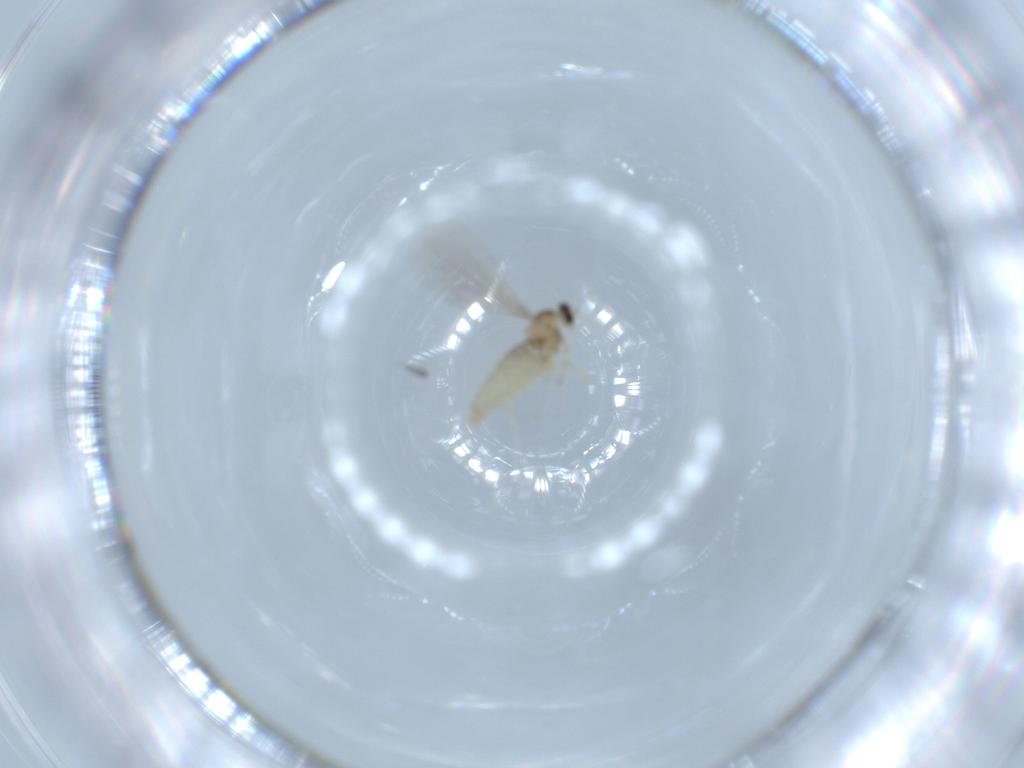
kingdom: Animalia
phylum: Arthropoda
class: Insecta
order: Diptera
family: Cecidomyiidae
